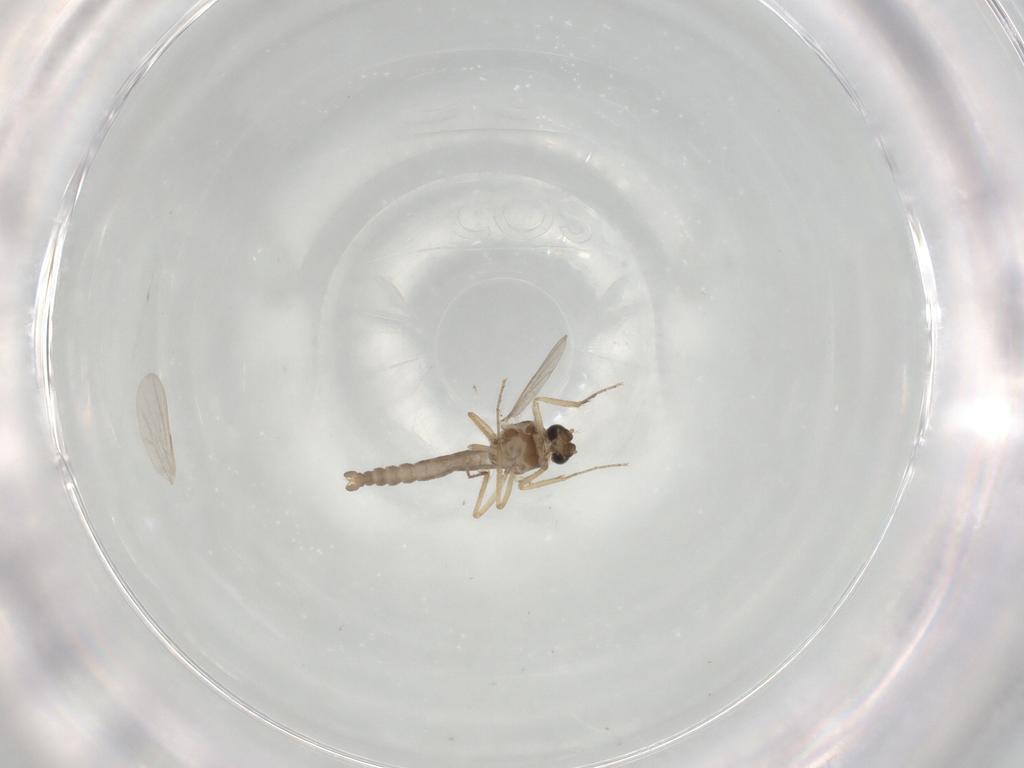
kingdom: Animalia
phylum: Arthropoda
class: Insecta
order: Diptera
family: Ceratopogonidae
